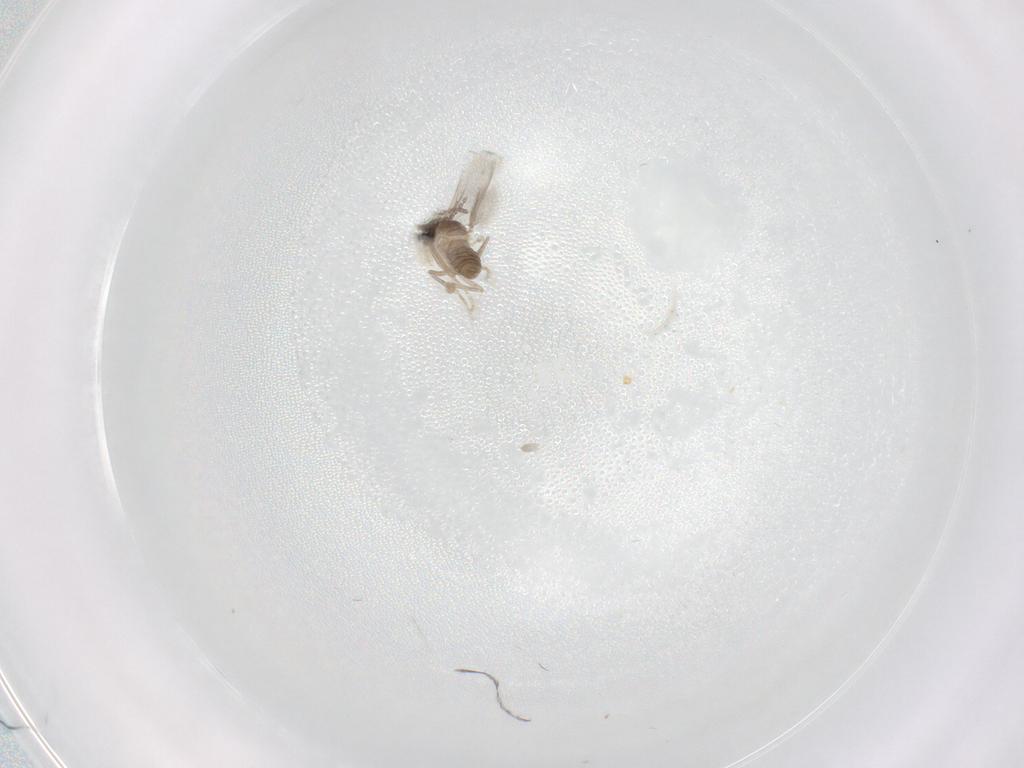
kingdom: Animalia
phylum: Arthropoda
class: Insecta
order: Diptera
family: Cecidomyiidae
